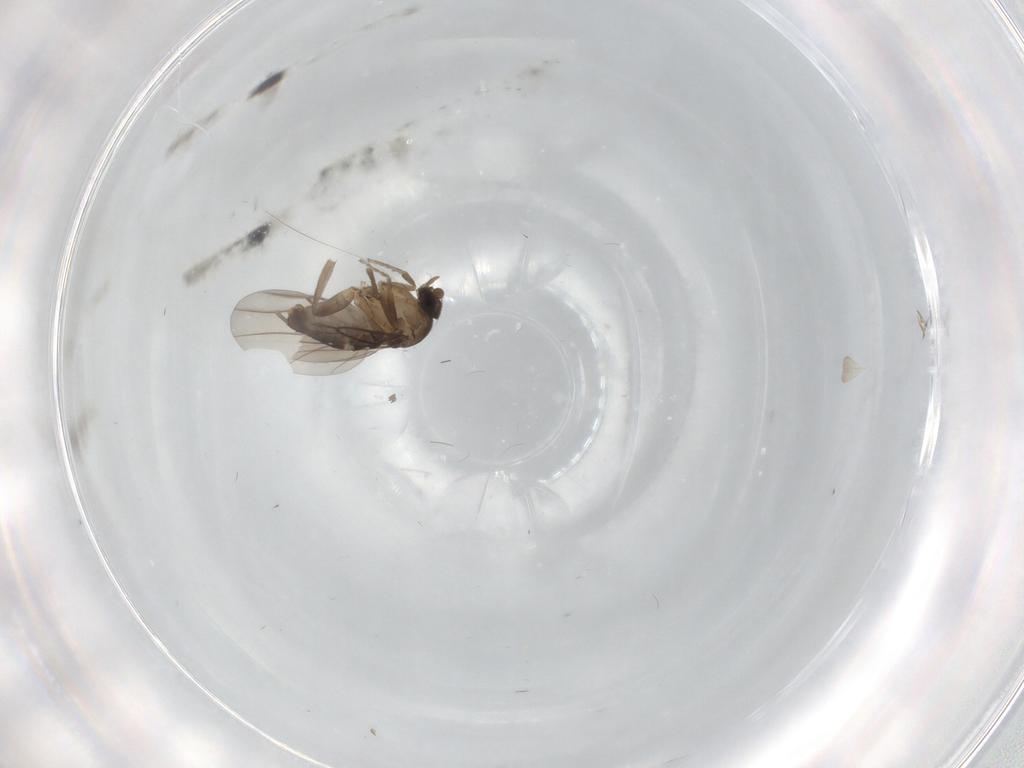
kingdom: Animalia
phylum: Arthropoda
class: Insecta
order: Diptera
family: Phoridae
